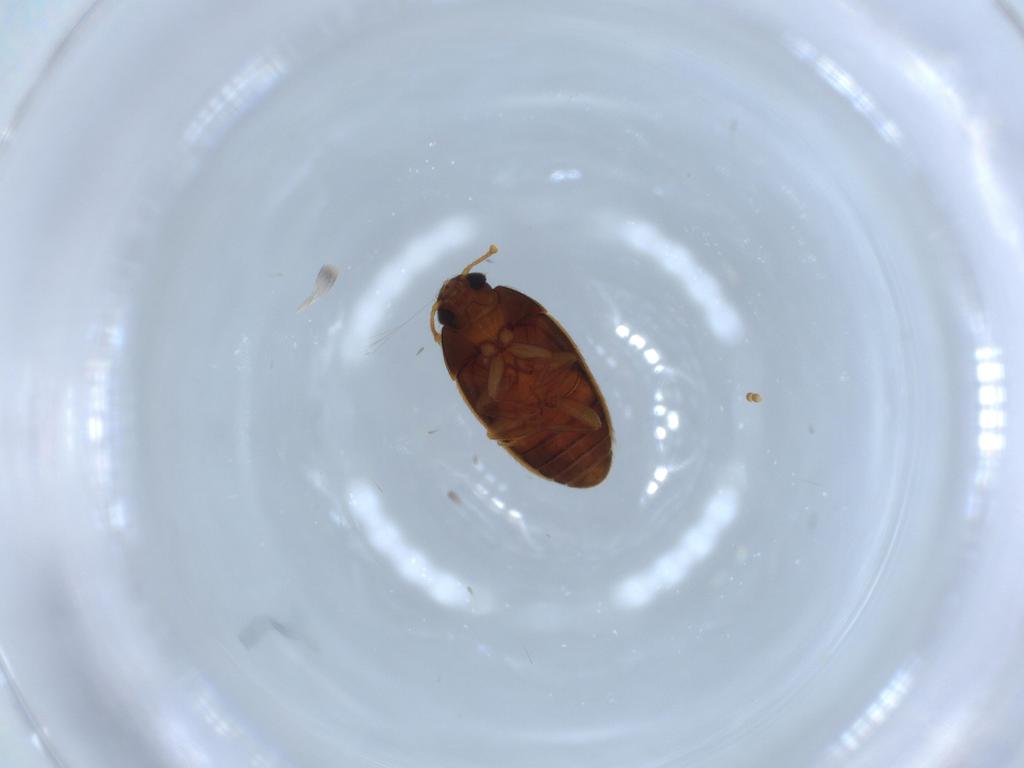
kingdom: Animalia
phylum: Arthropoda
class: Insecta
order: Coleoptera
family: Mycetophagidae
